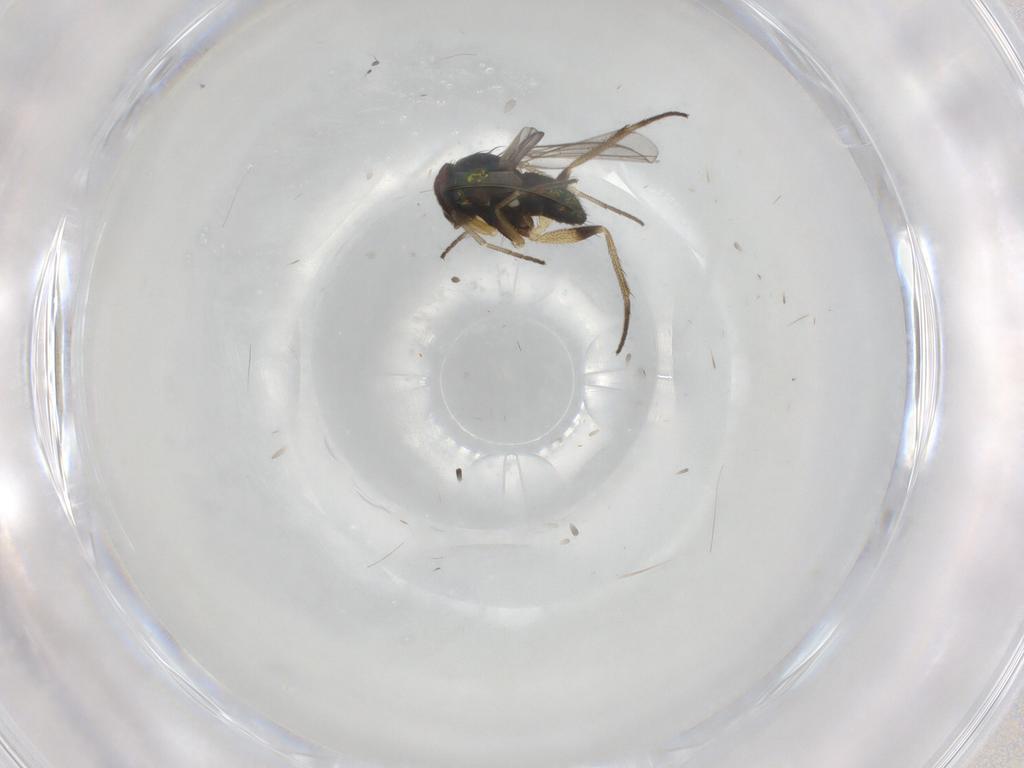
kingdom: Animalia
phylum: Arthropoda
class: Insecta
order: Diptera
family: Dolichopodidae
